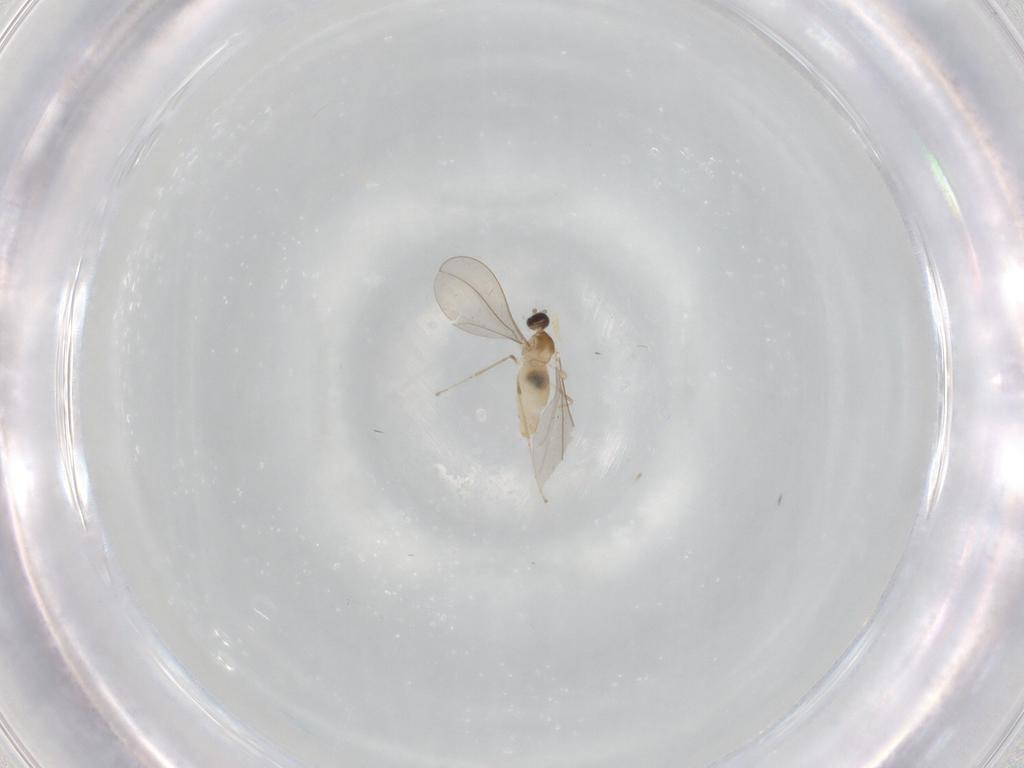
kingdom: Animalia
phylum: Arthropoda
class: Insecta
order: Diptera
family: Cecidomyiidae
